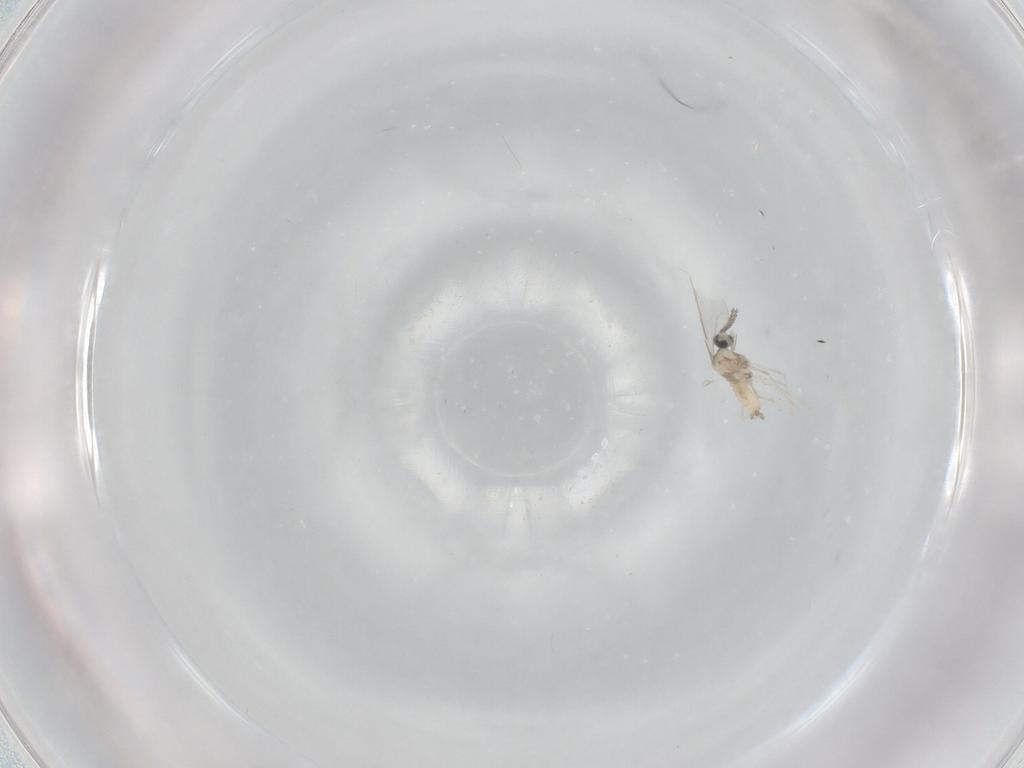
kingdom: Animalia
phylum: Arthropoda
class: Insecta
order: Diptera
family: Cecidomyiidae
